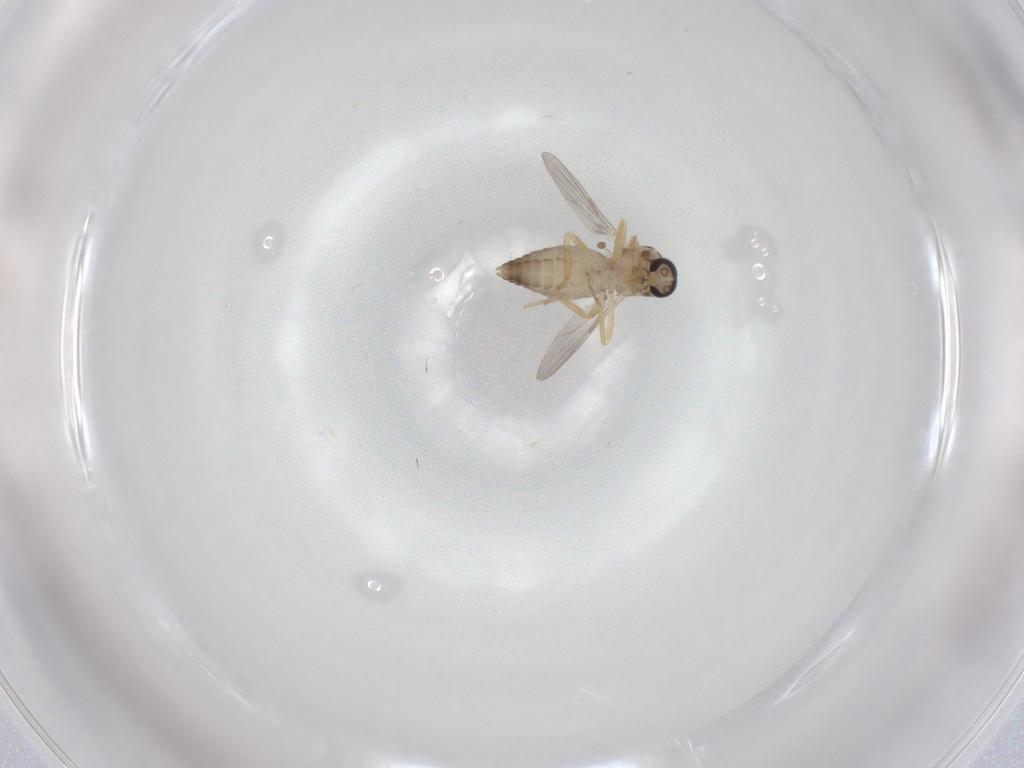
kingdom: Animalia
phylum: Arthropoda
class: Insecta
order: Diptera
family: Ceratopogonidae
